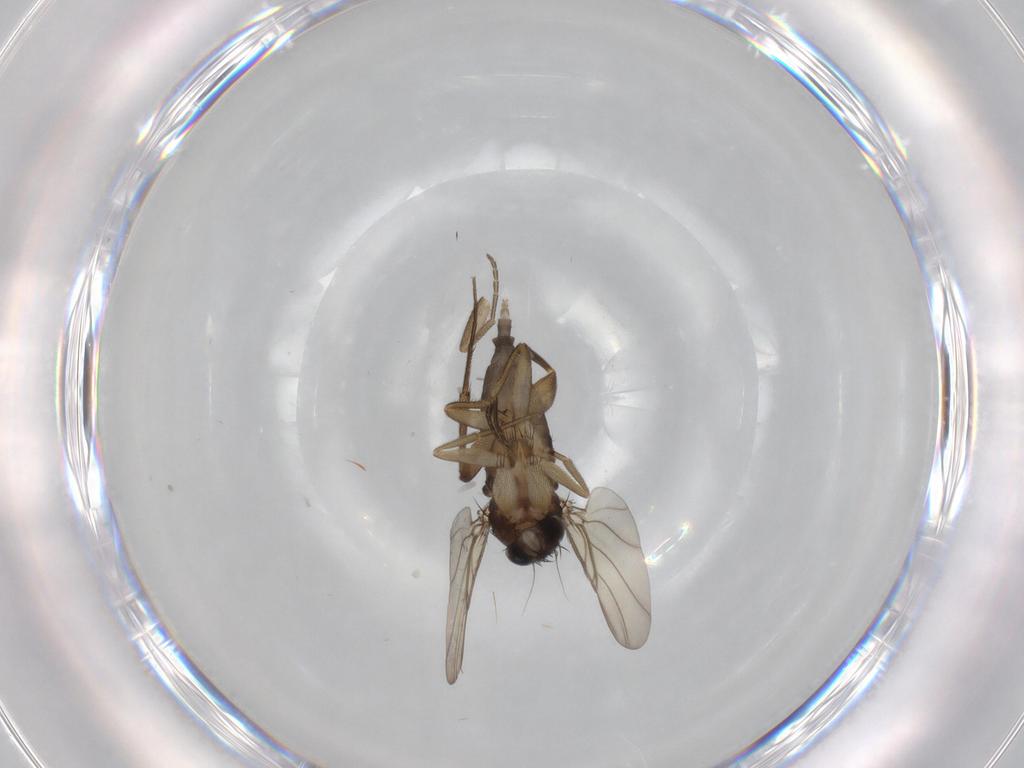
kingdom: Animalia
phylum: Arthropoda
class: Insecta
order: Diptera
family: Phoridae
